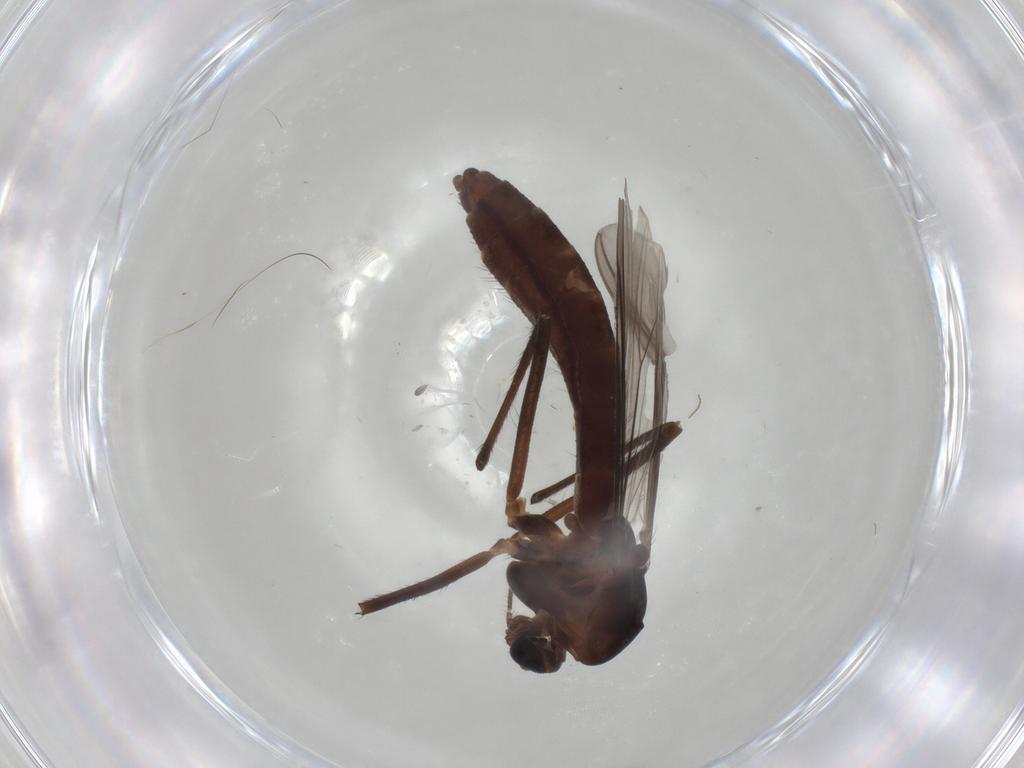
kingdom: Animalia
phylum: Arthropoda
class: Insecta
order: Diptera
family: Chironomidae
